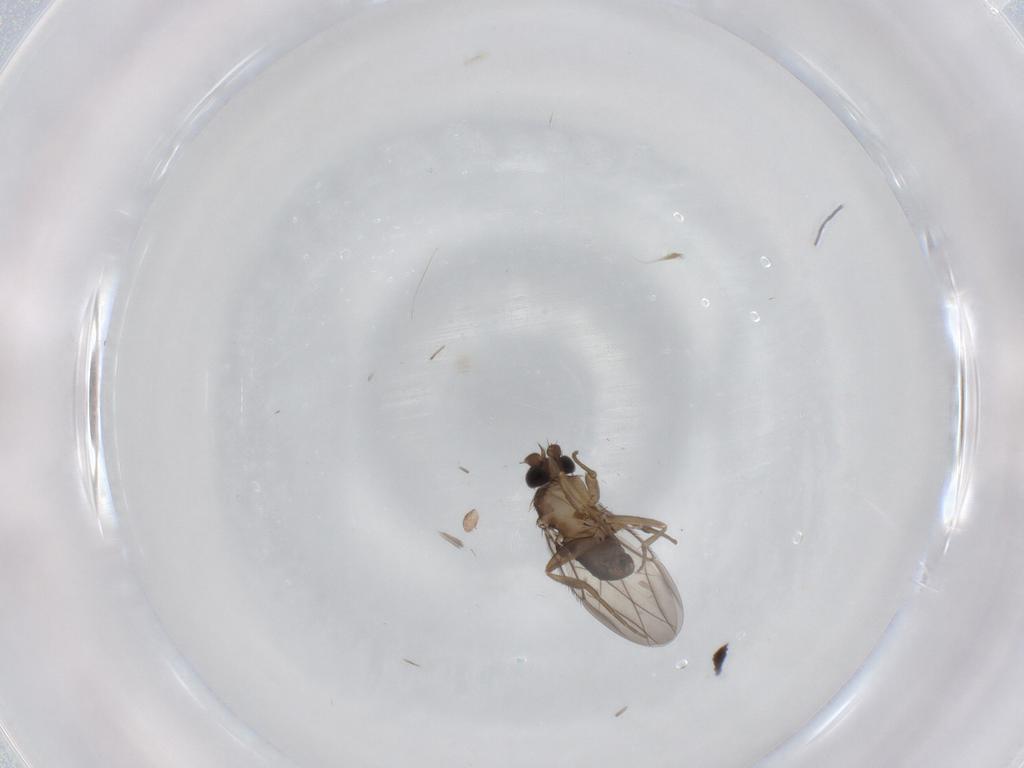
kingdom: Animalia
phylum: Arthropoda
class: Insecta
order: Diptera
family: Phoridae
